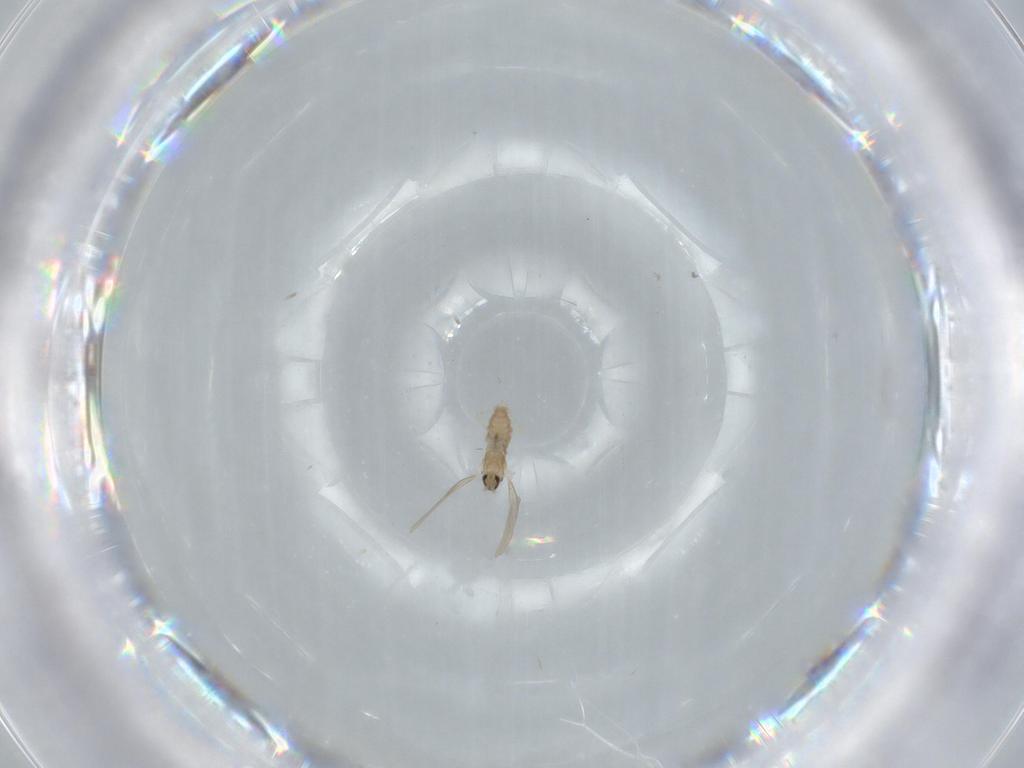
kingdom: Animalia
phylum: Arthropoda
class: Insecta
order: Diptera
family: Cecidomyiidae
